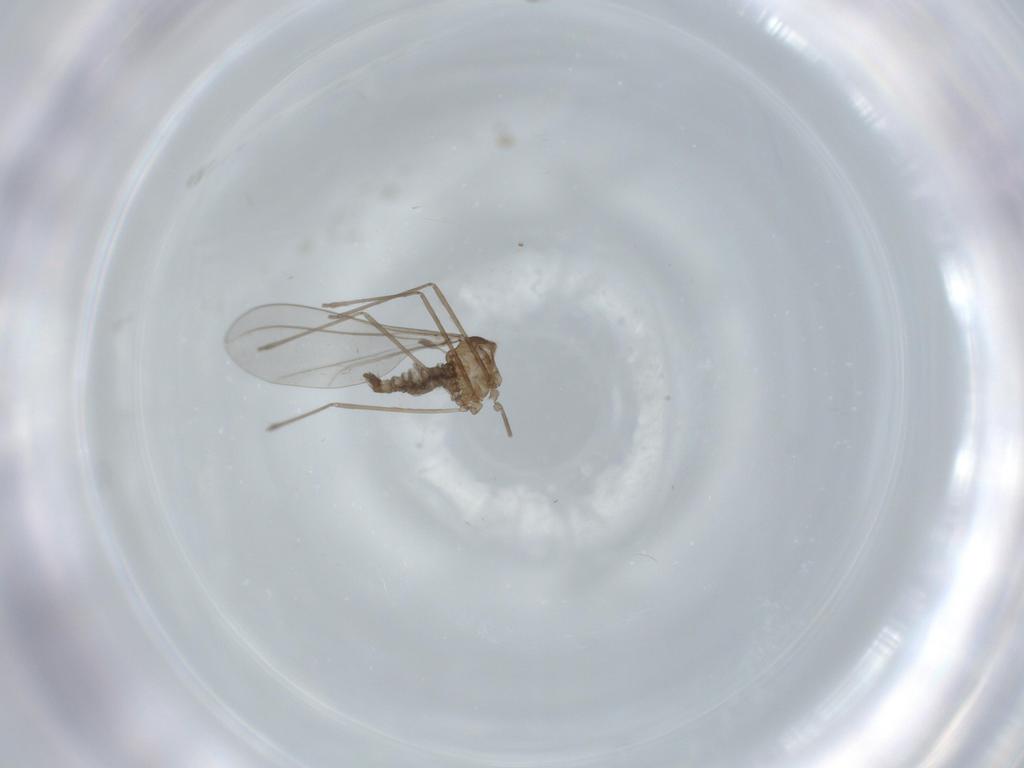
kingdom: Animalia
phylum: Arthropoda
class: Insecta
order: Diptera
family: Cecidomyiidae
